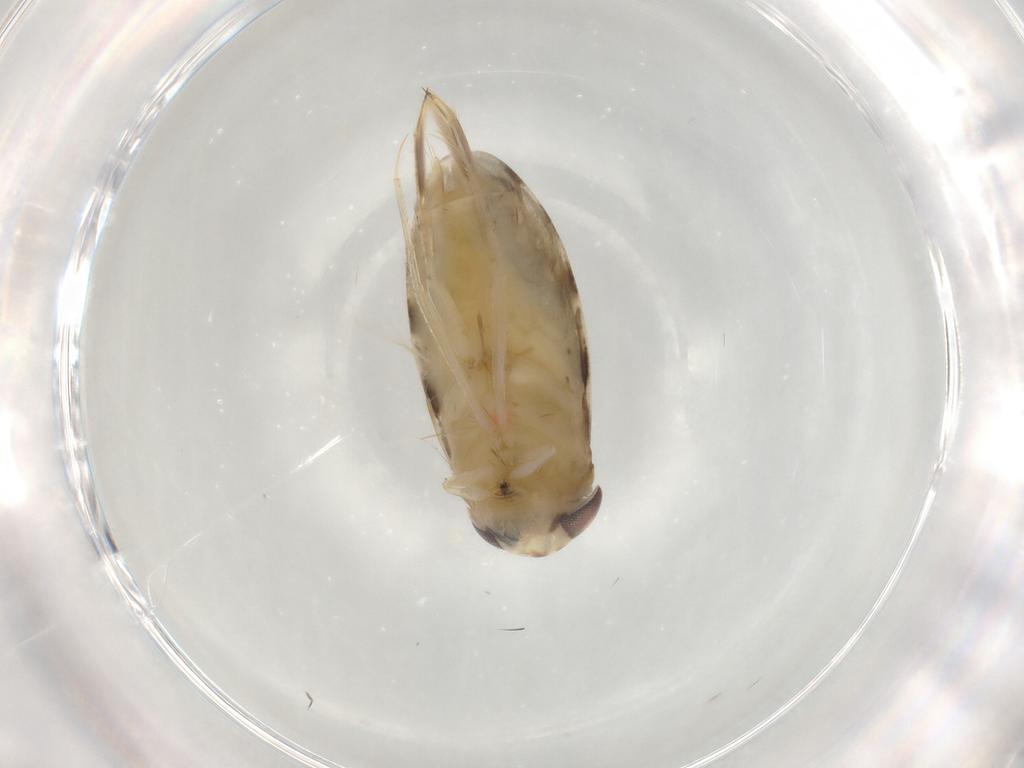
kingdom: Animalia
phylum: Arthropoda
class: Insecta
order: Hemiptera
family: Corixidae
